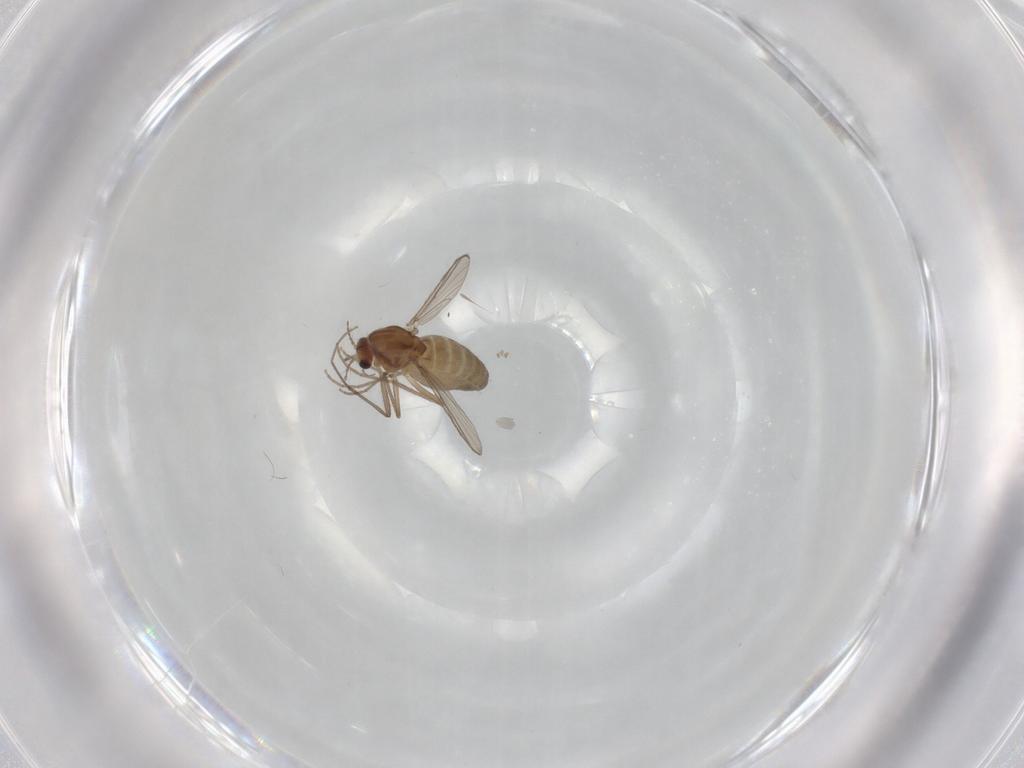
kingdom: Animalia
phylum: Arthropoda
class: Insecta
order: Diptera
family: Chironomidae
